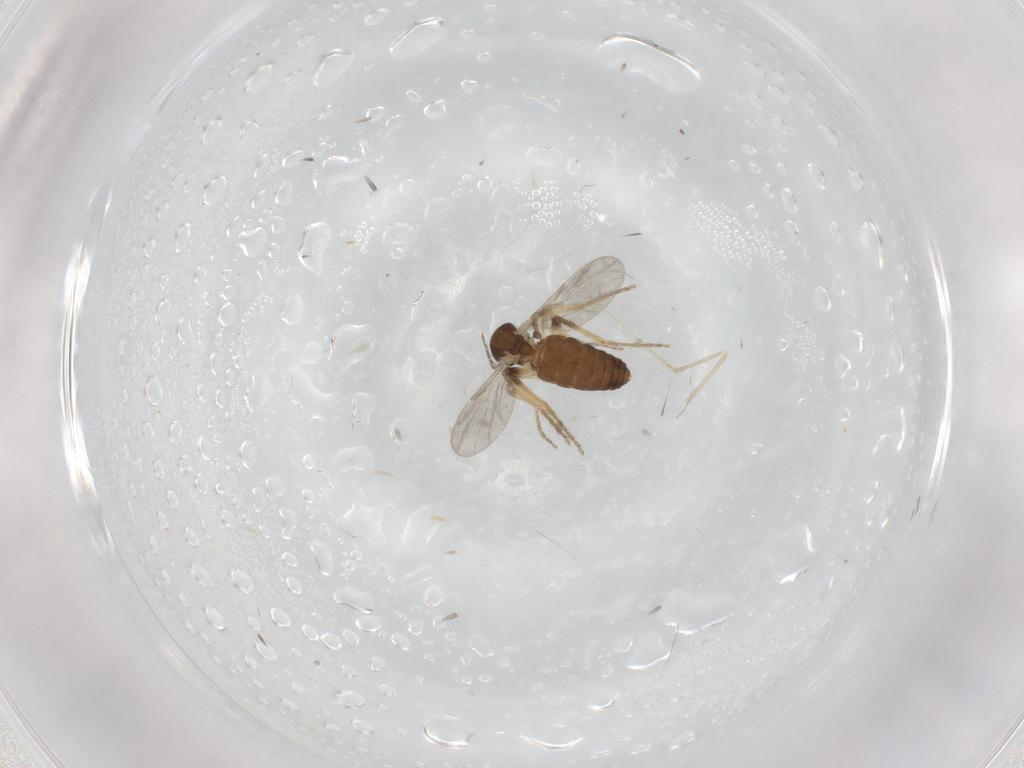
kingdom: Animalia
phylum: Arthropoda
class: Insecta
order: Diptera
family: Ceratopogonidae
